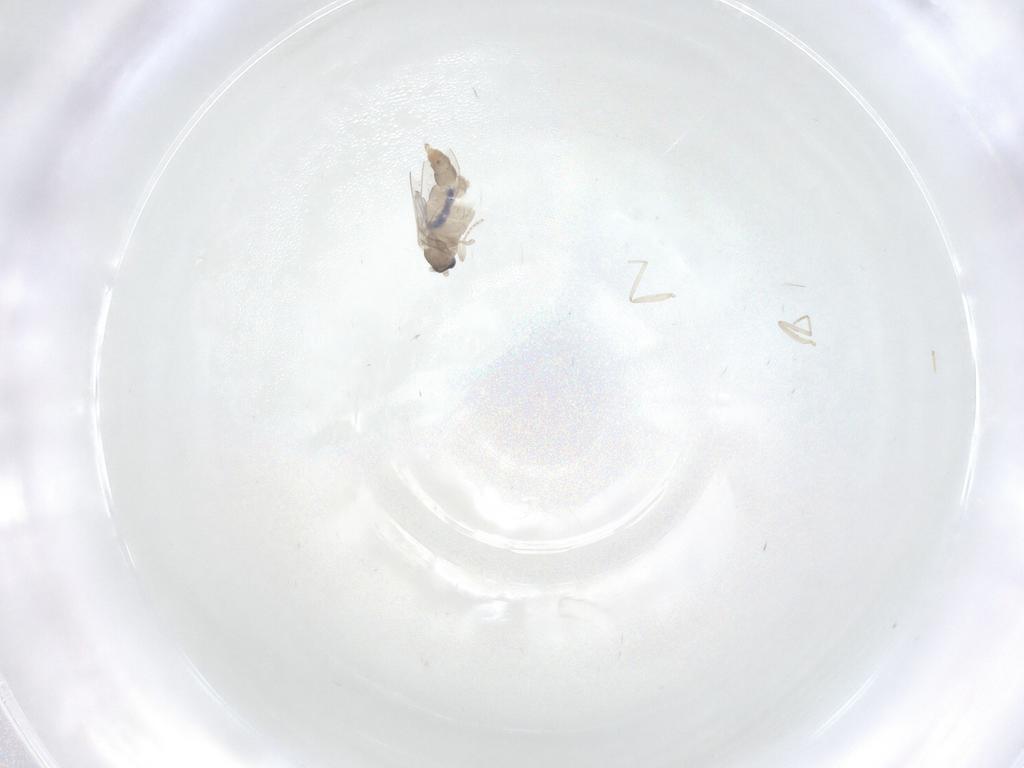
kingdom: Animalia
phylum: Arthropoda
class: Insecta
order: Diptera
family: Cecidomyiidae
